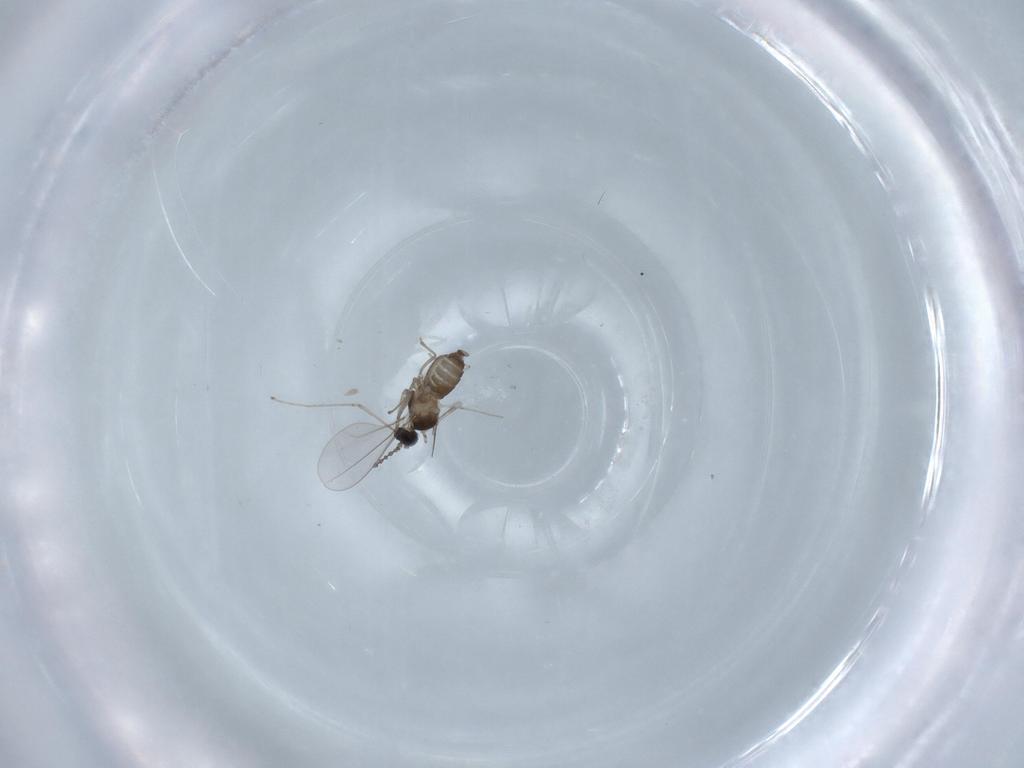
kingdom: Animalia
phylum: Arthropoda
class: Insecta
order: Diptera
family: Cecidomyiidae
